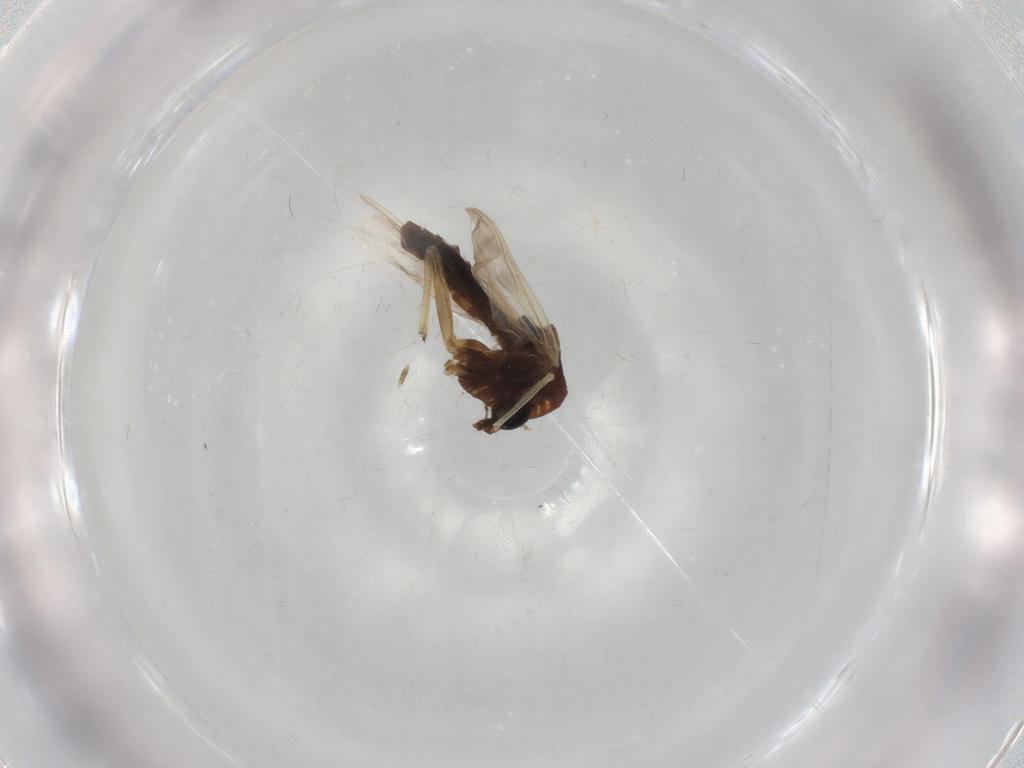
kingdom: Animalia
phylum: Arthropoda
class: Insecta
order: Diptera
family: Chironomidae
